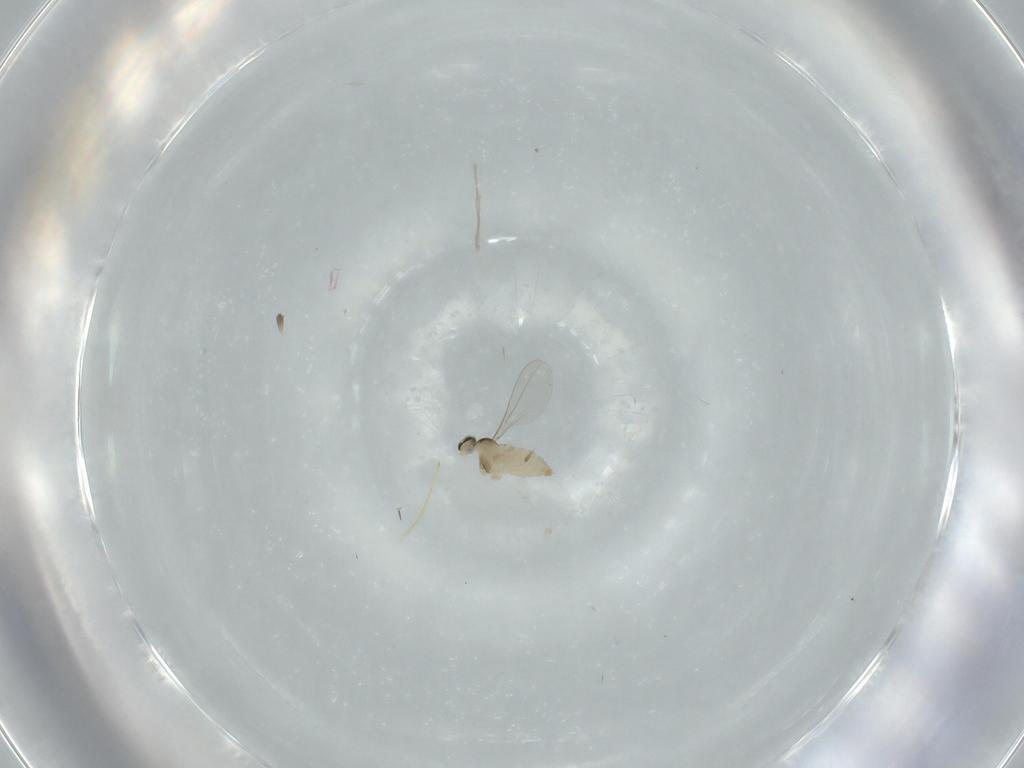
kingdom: Animalia
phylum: Arthropoda
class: Insecta
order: Diptera
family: Cecidomyiidae
